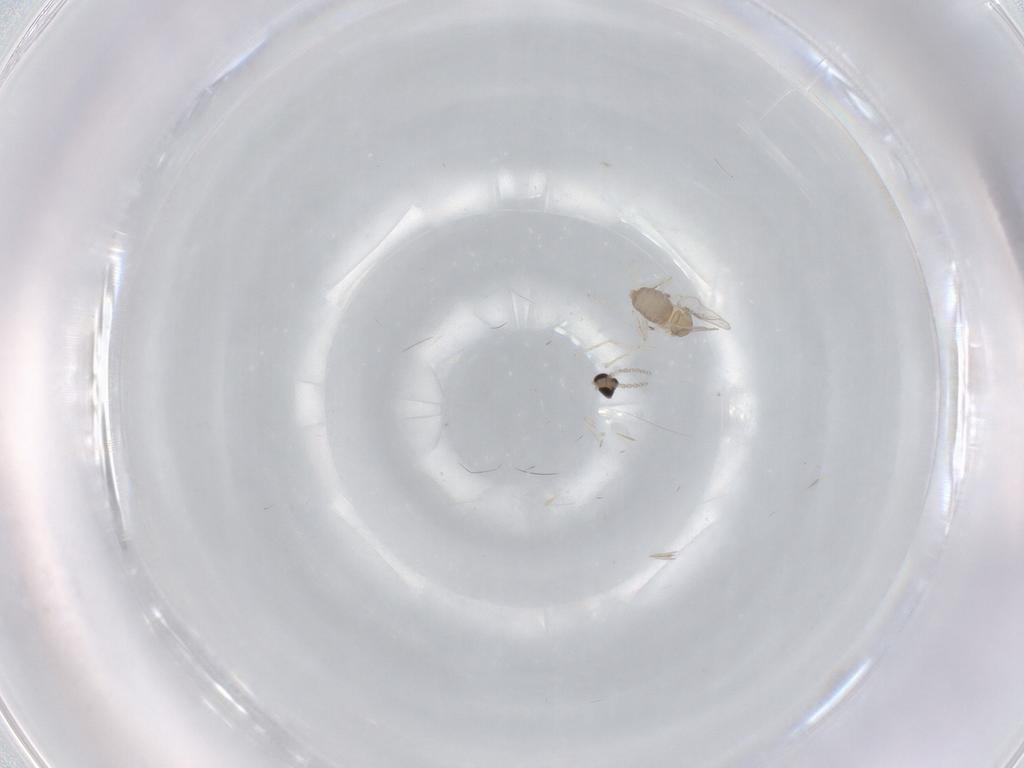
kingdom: Animalia
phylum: Arthropoda
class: Insecta
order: Diptera
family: Cecidomyiidae
